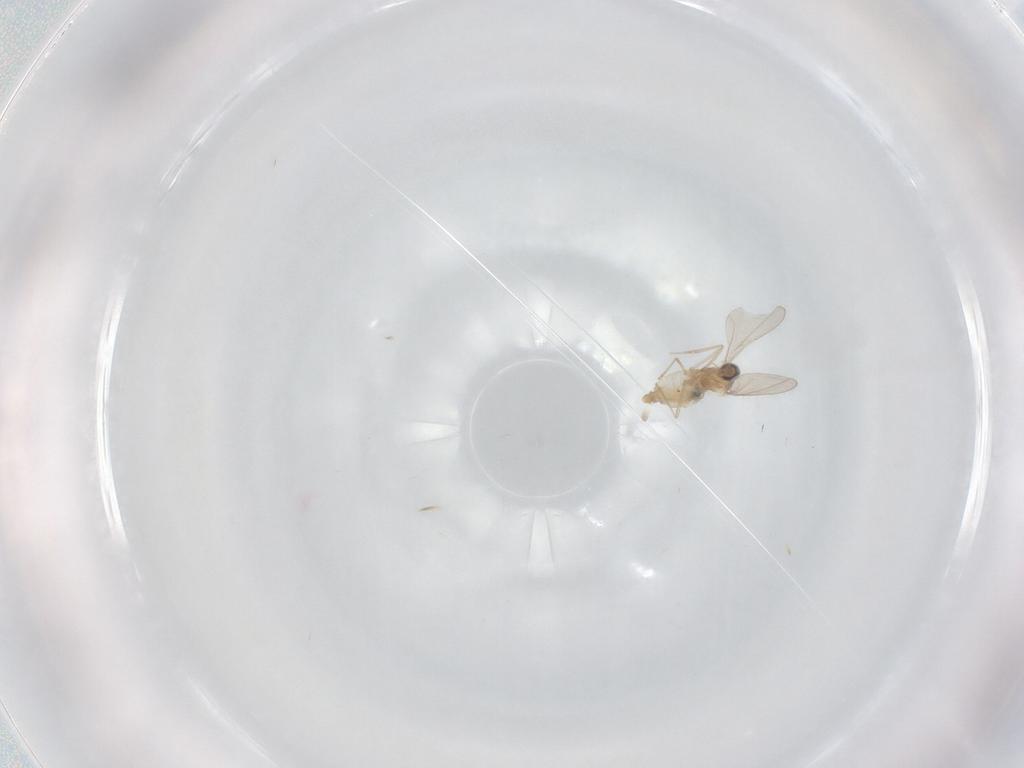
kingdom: Animalia
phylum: Arthropoda
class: Insecta
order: Diptera
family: Cecidomyiidae
